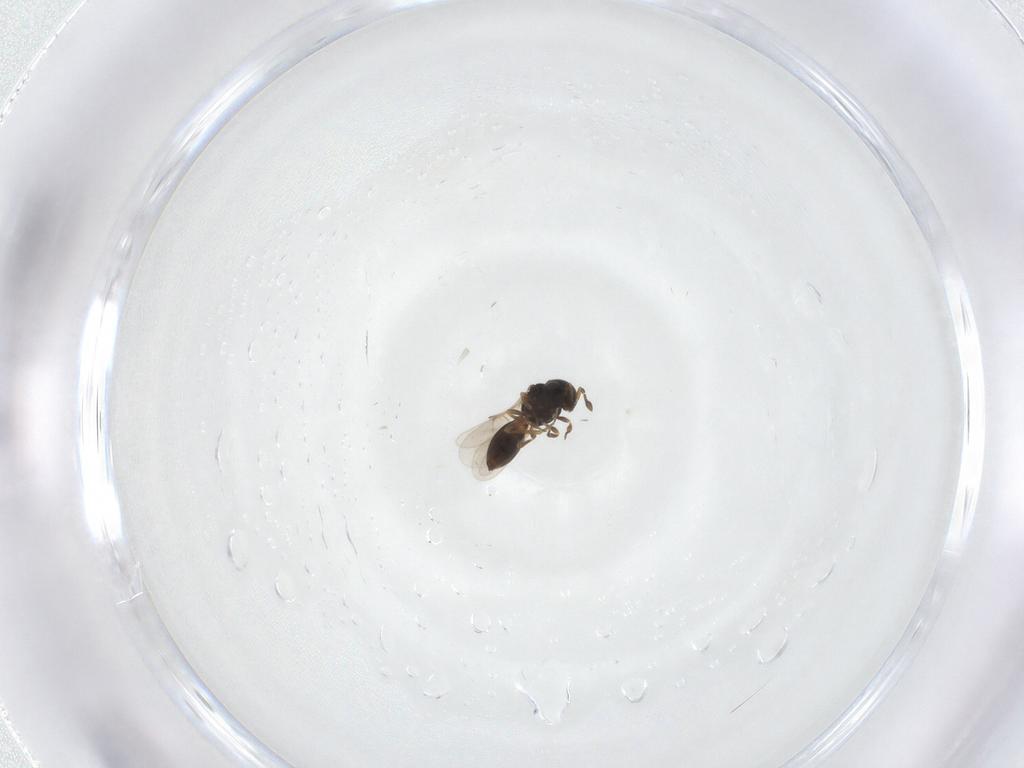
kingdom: Animalia
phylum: Arthropoda
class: Insecta
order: Hymenoptera
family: Scelionidae
